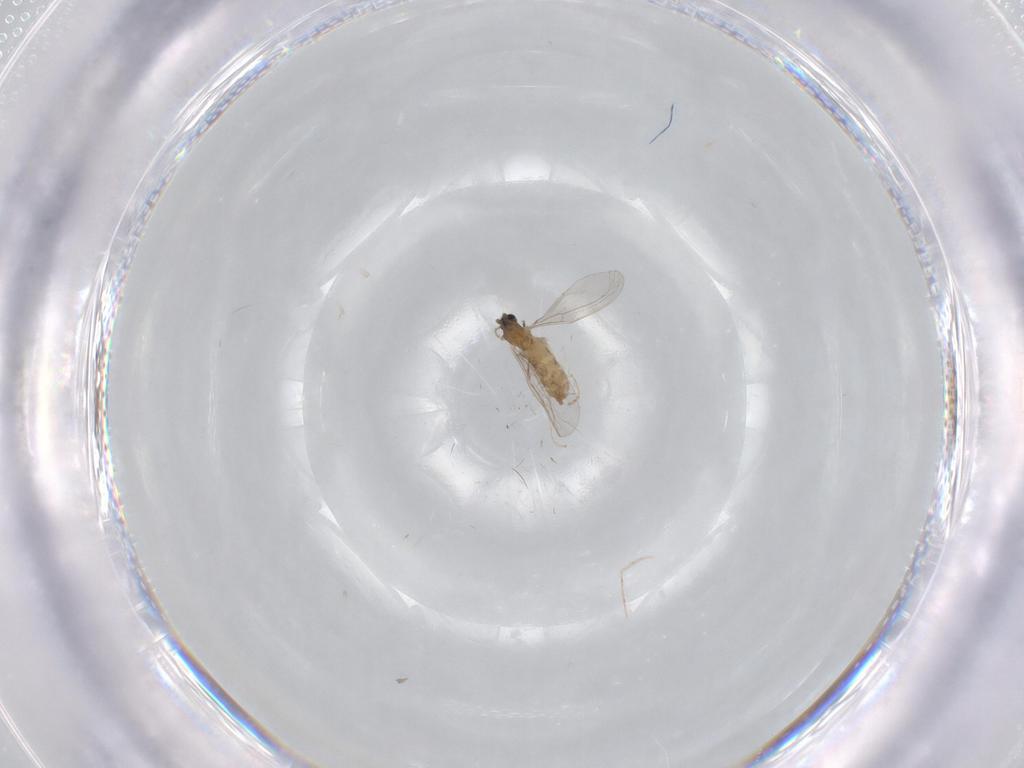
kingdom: Animalia
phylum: Arthropoda
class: Insecta
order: Diptera
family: Cecidomyiidae
